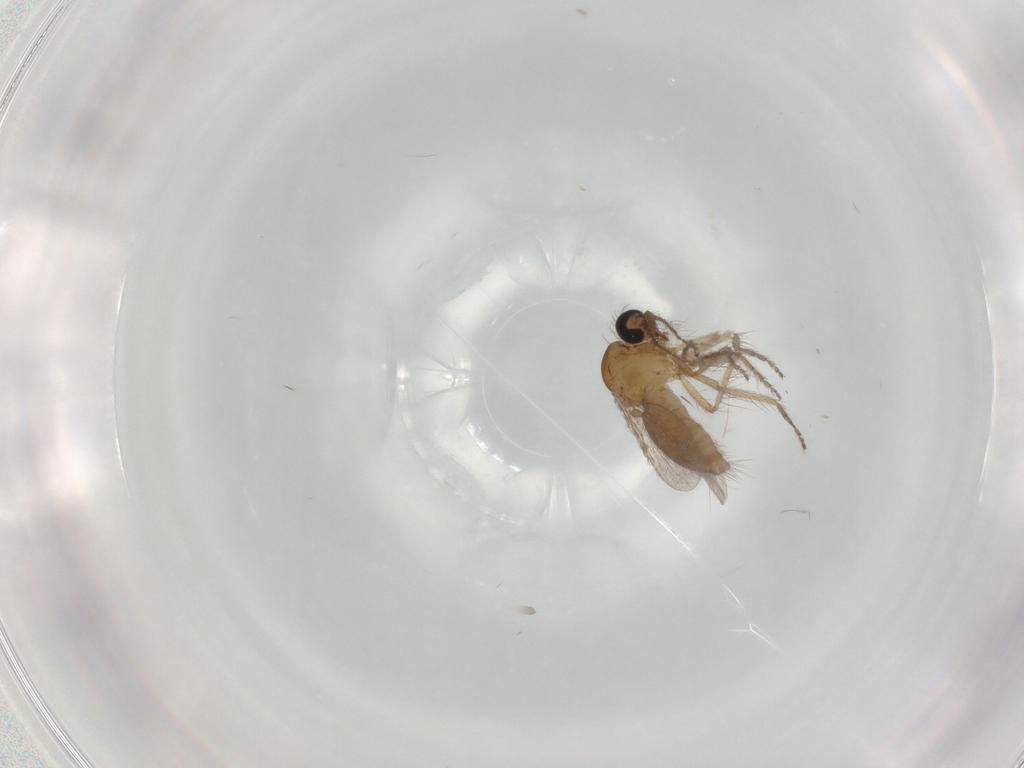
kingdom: Animalia
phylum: Arthropoda
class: Insecta
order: Diptera
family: Ceratopogonidae
